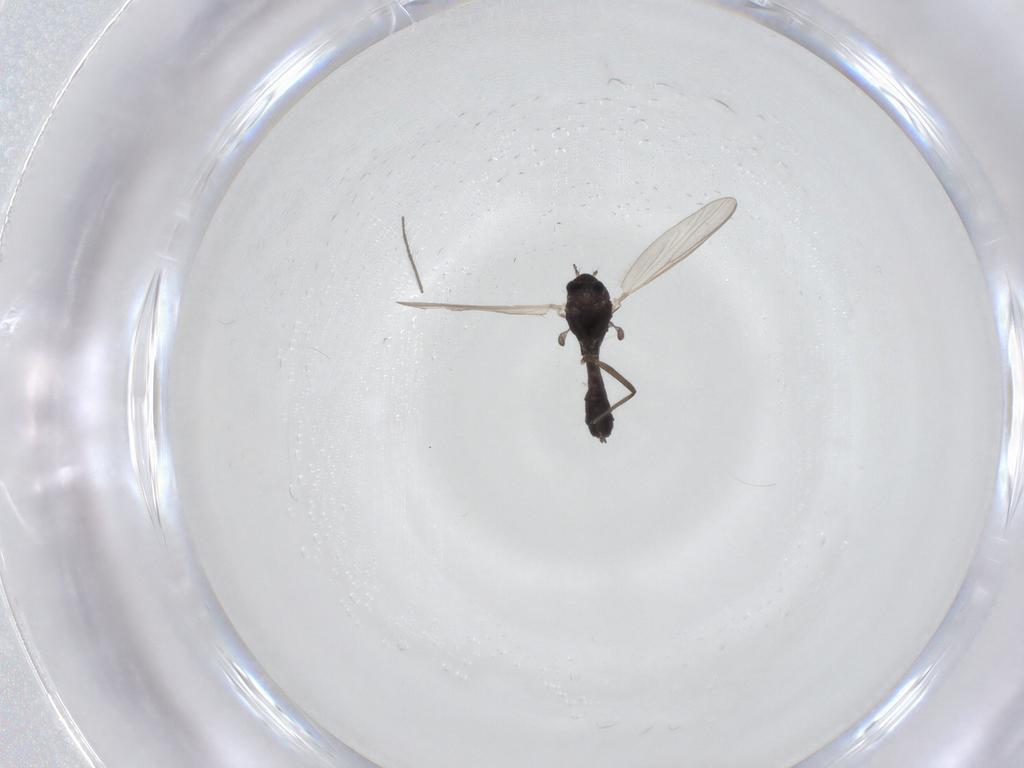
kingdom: Animalia
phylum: Arthropoda
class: Insecta
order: Diptera
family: Chironomidae
